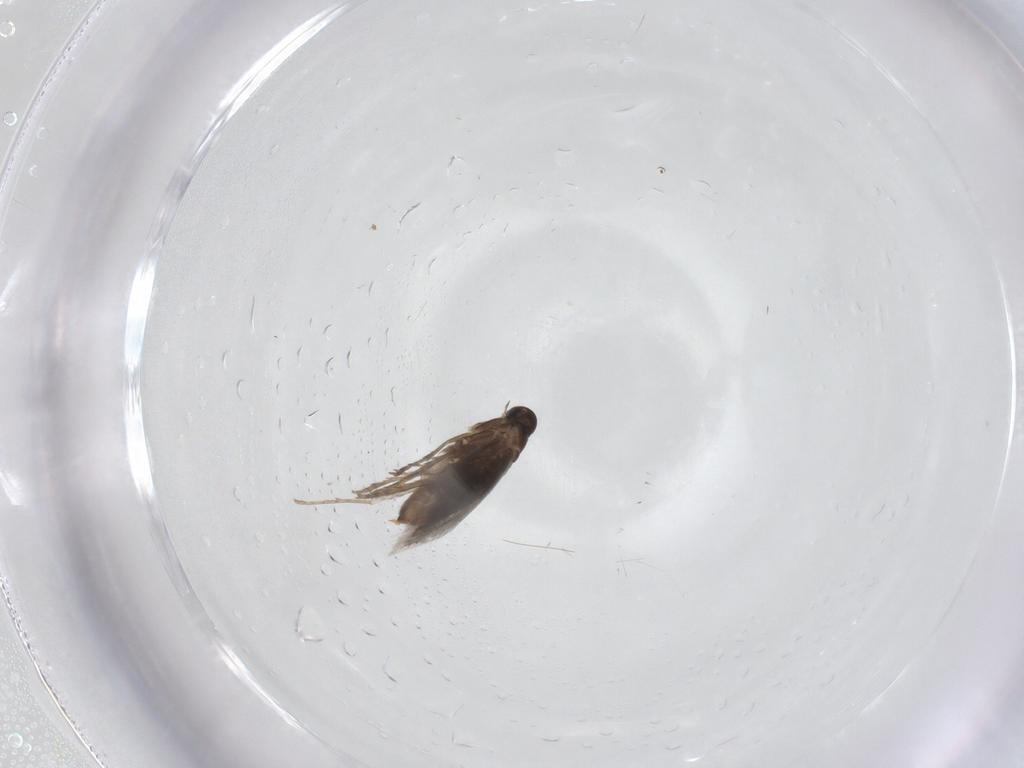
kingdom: Animalia
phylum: Arthropoda
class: Insecta
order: Lepidoptera
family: Heliozelidae
